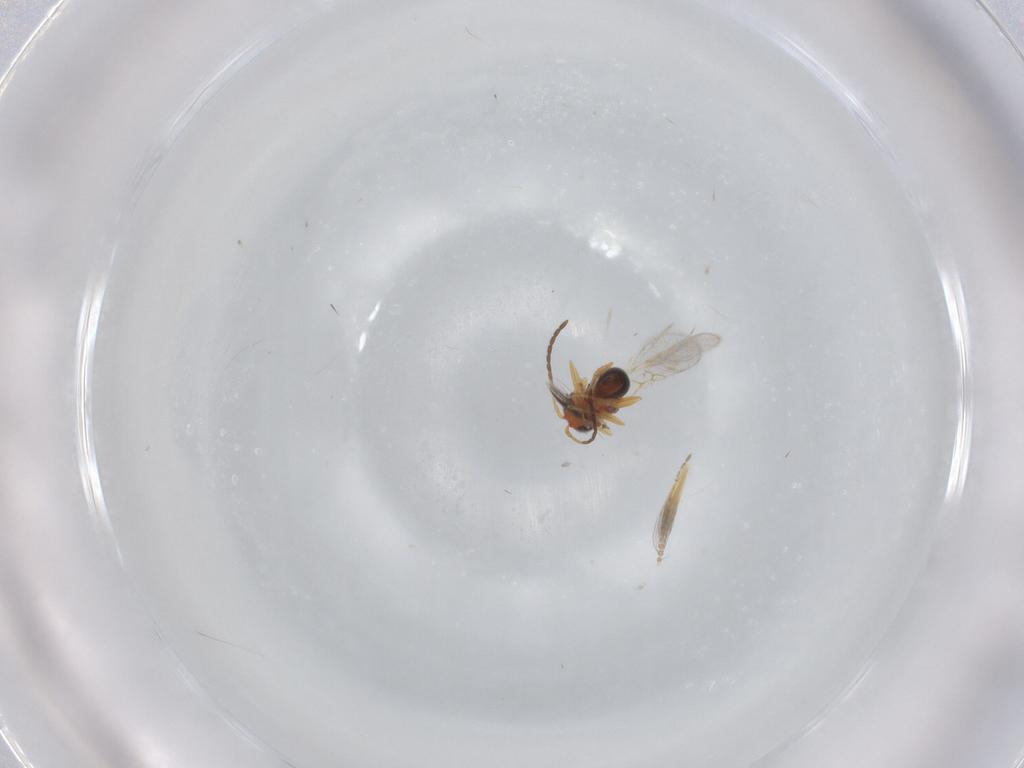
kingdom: Animalia
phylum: Arthropoda
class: Insecta
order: Hymenoptera
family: Figitidae
